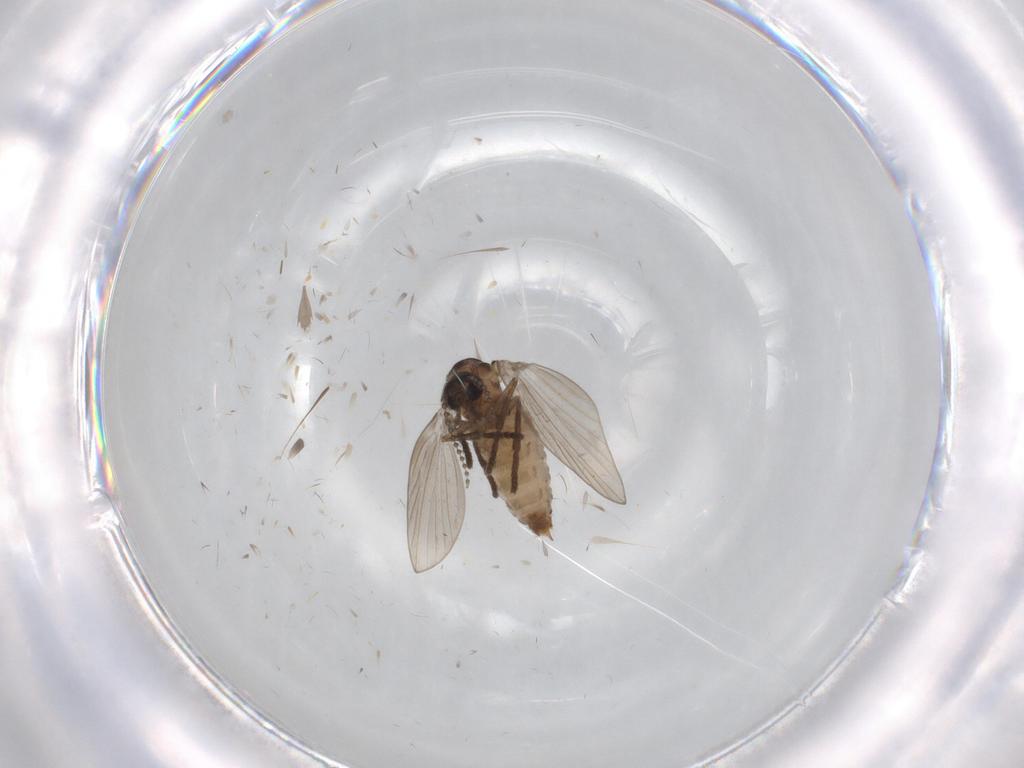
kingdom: Animalia
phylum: Arthropoda
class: Insecta
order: Diptera
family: Psychodidae
